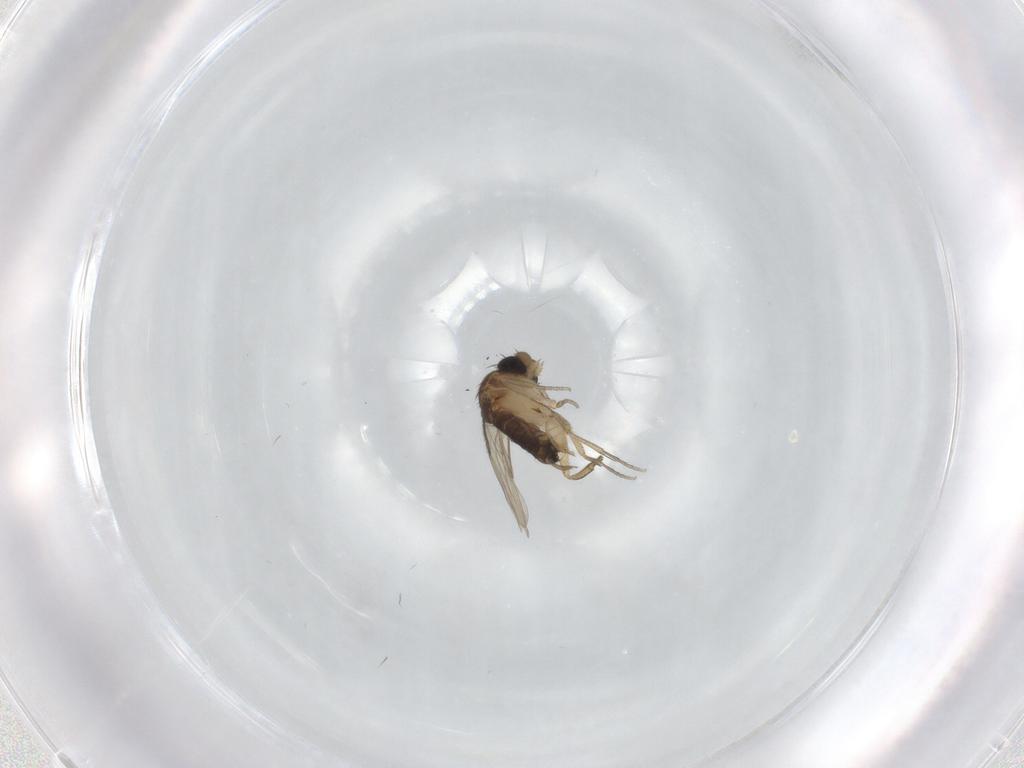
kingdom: Animalia
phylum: Arthropoda
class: Insecta
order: Diptera
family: Phoridae
